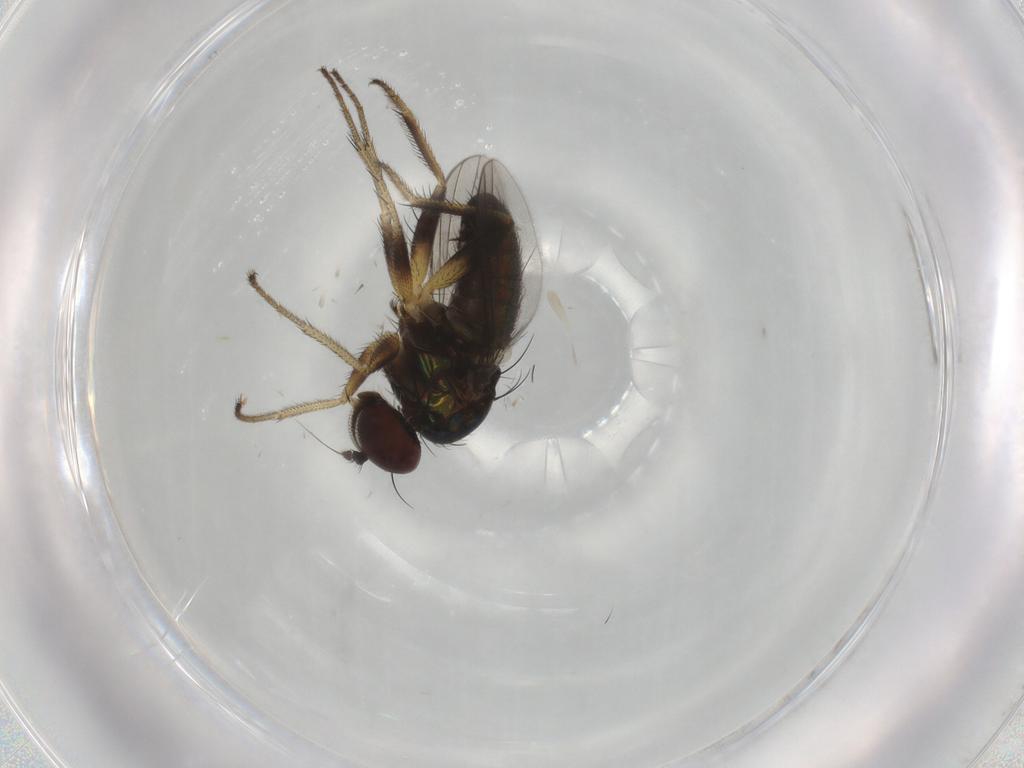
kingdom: Animalia
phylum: Arthropoda
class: Insecta
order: Diptera
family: Dolichopodidae
